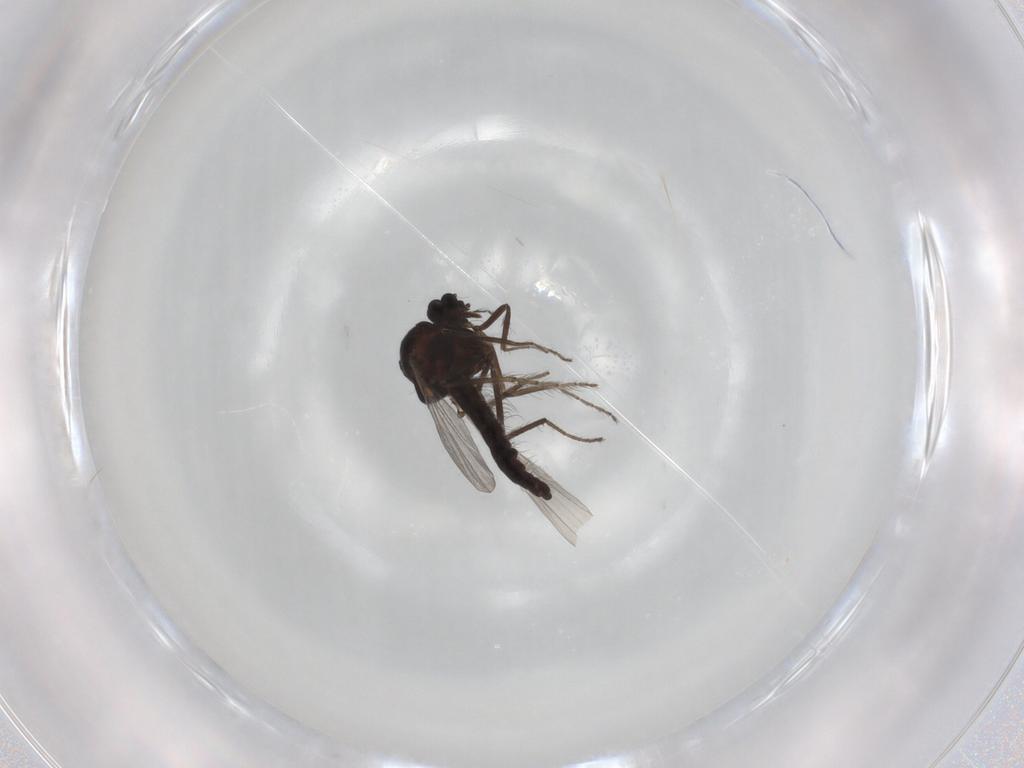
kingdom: Animalia
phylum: Arthropoda
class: Insecta
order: Diptera
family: Ceratopogonidae
